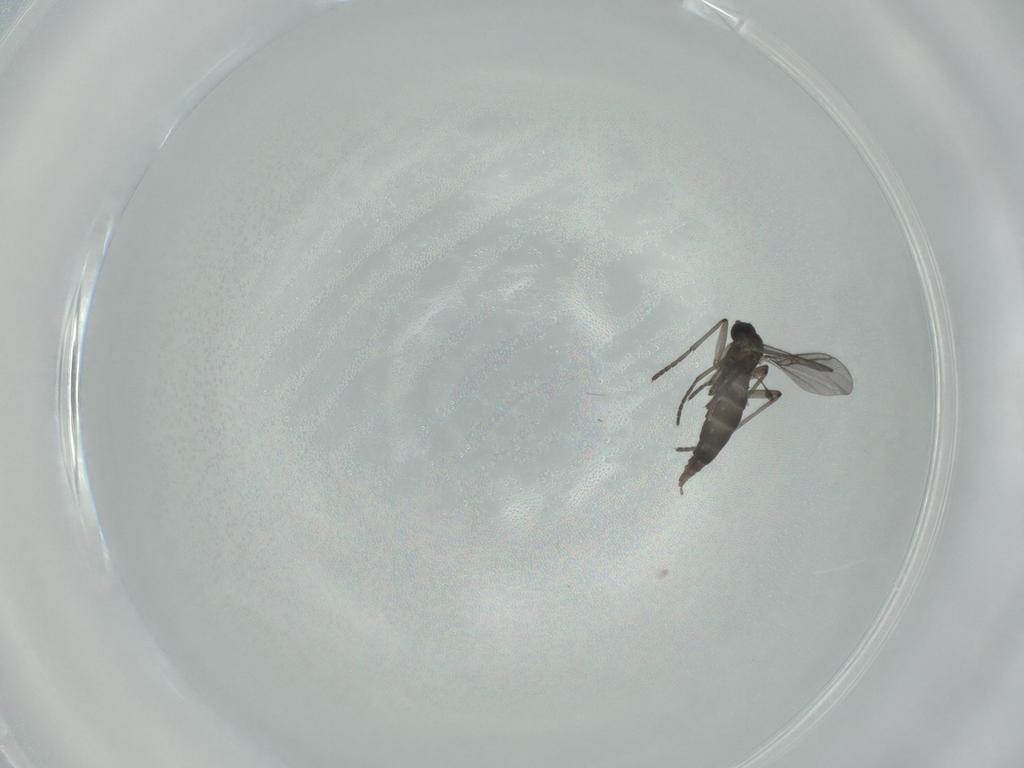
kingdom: Animalia
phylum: Arthropoda
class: Insecta
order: Diptera
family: Sciaridae
